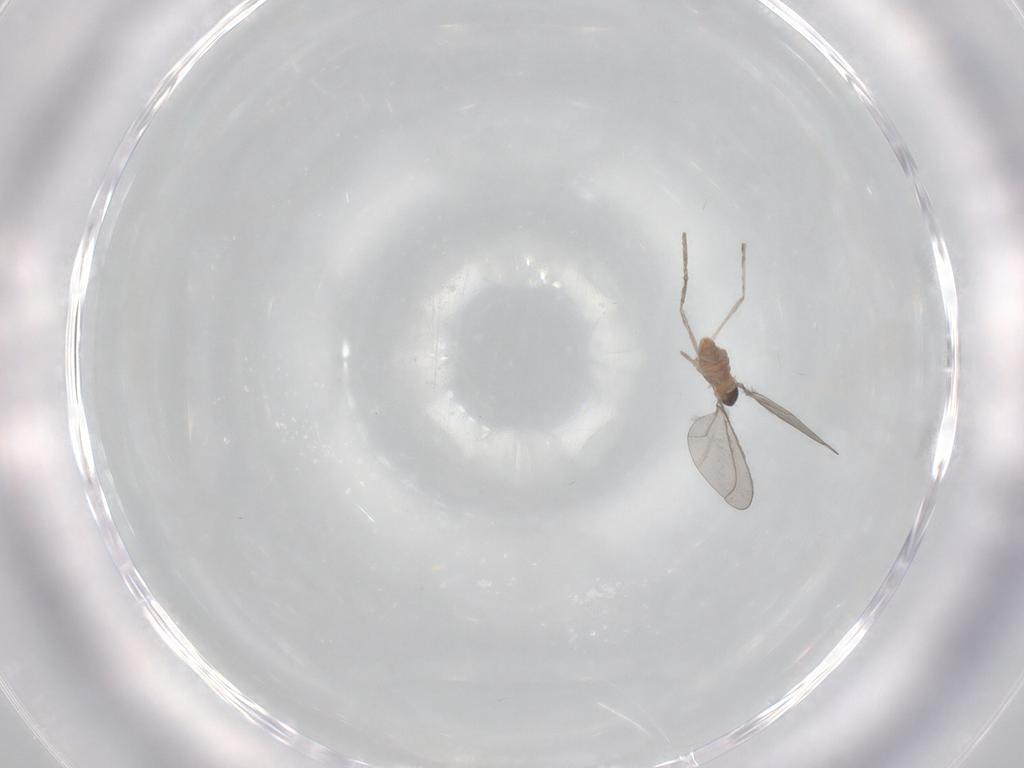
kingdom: Animalia
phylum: Arthropoda
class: Insecta
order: Diptera
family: Cecidomyiidae
